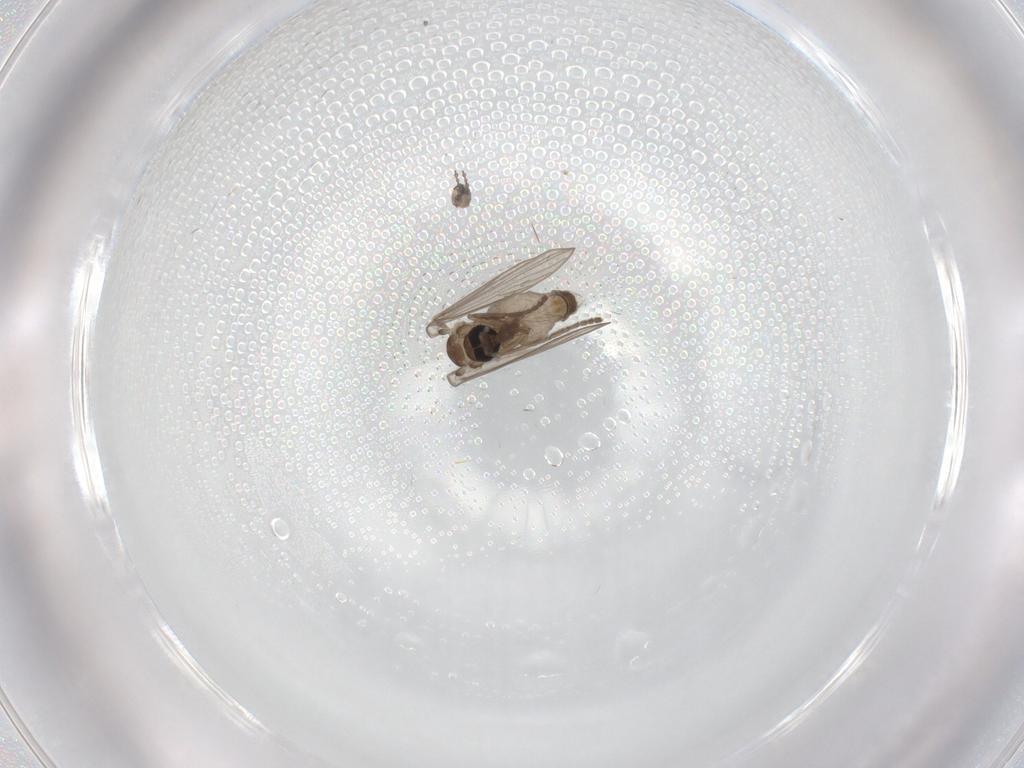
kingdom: Animalia
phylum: Arthropoda
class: Insecta
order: Diptera
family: Psychodidae
